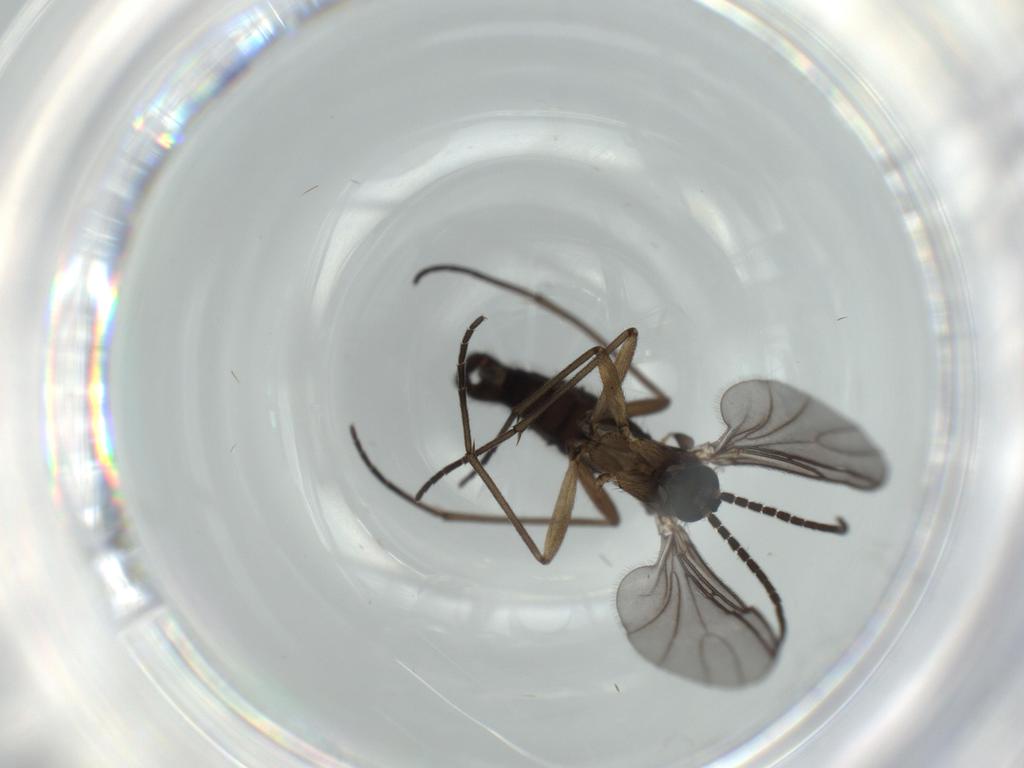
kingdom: Animalia
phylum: Arthropoda
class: Insecta
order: Diptera
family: Sciaridae
